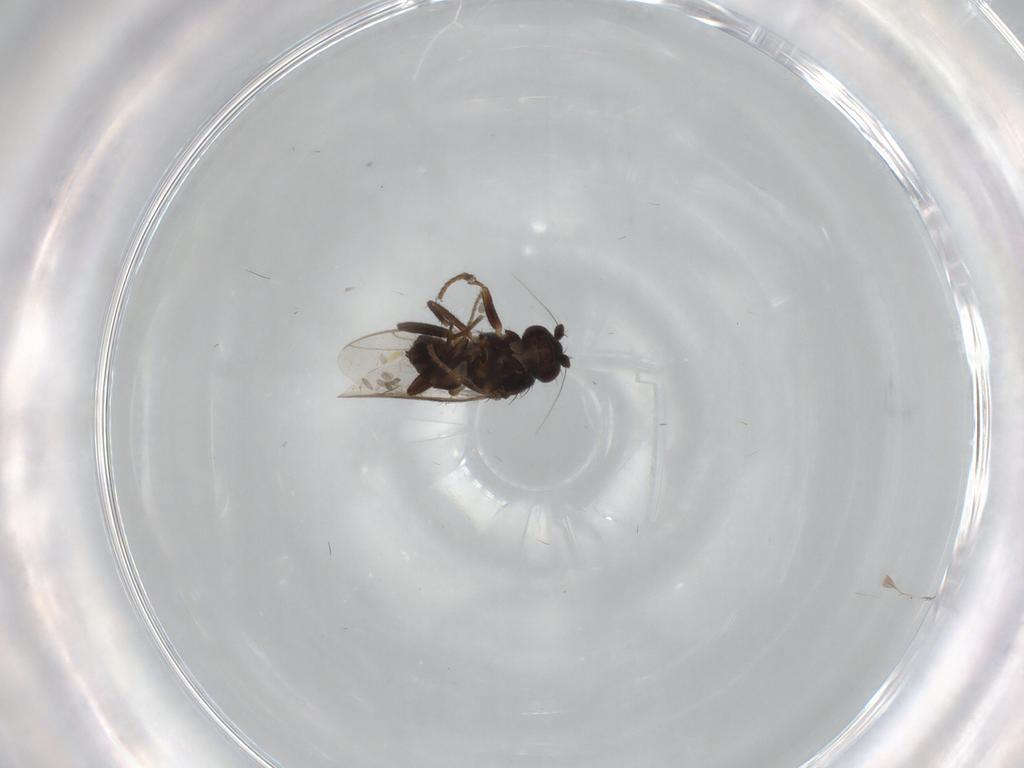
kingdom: Animalia
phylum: Arthropoda
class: Insecta
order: Diptera
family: Sphaeroceridae
